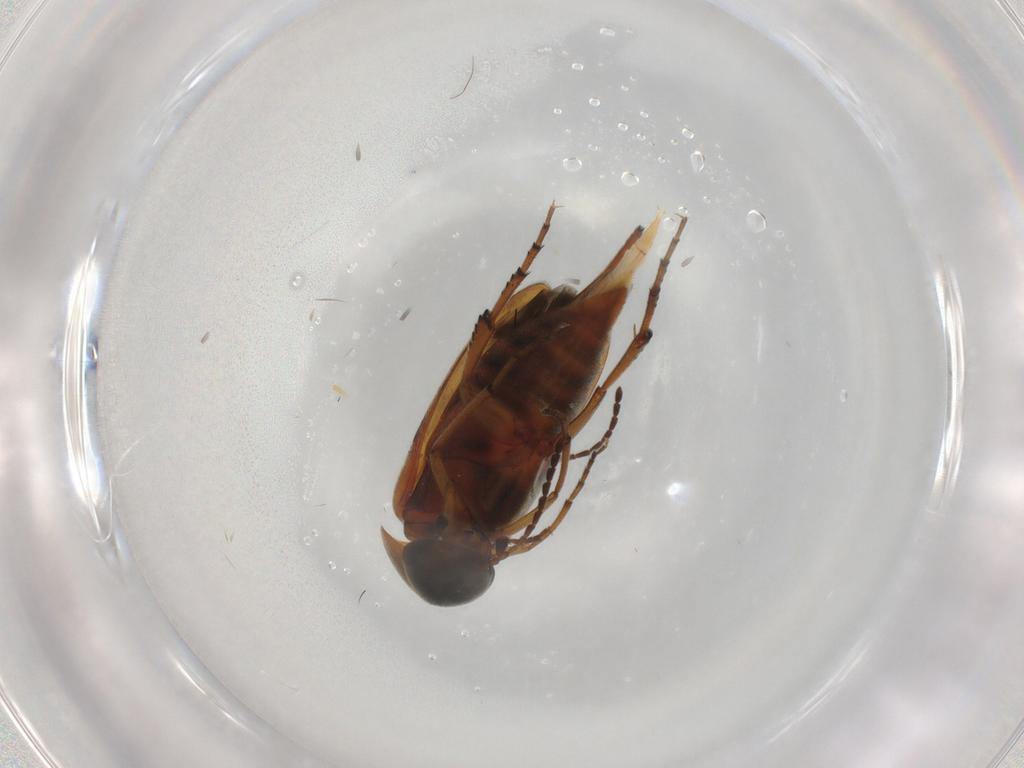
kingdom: Animalia
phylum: Arthropoda
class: Insecta
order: Coleoptera
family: Mordellidae
